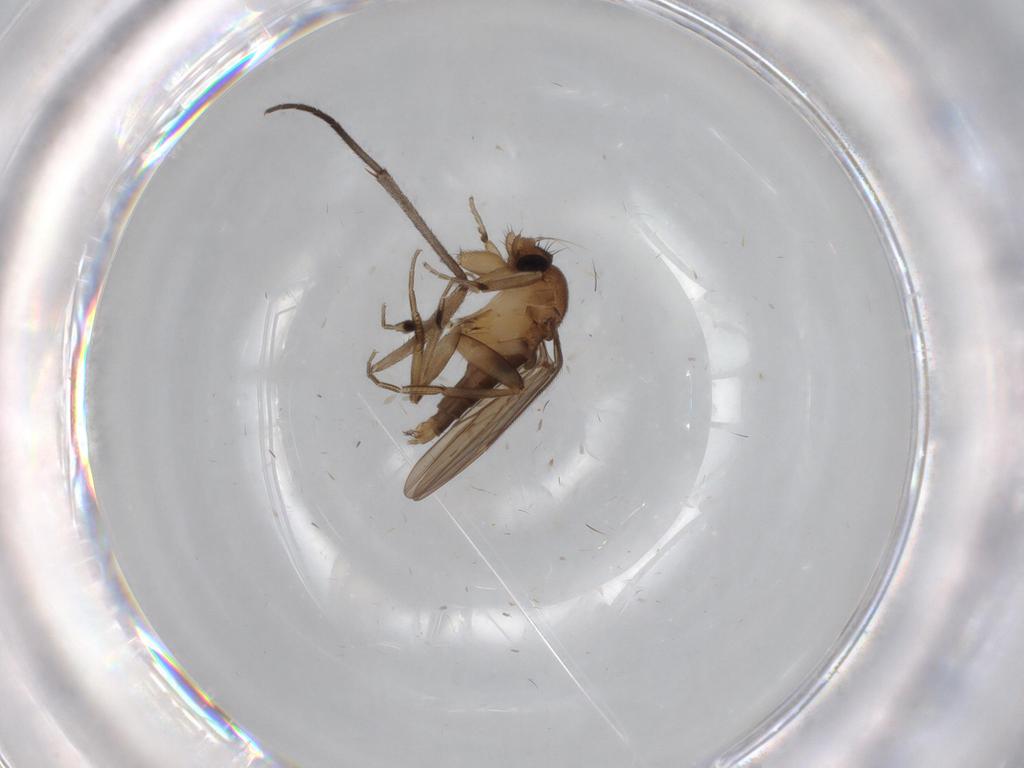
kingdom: Animalia
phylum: Arthropoda
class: Insecta
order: Diptera
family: Sciaridae
